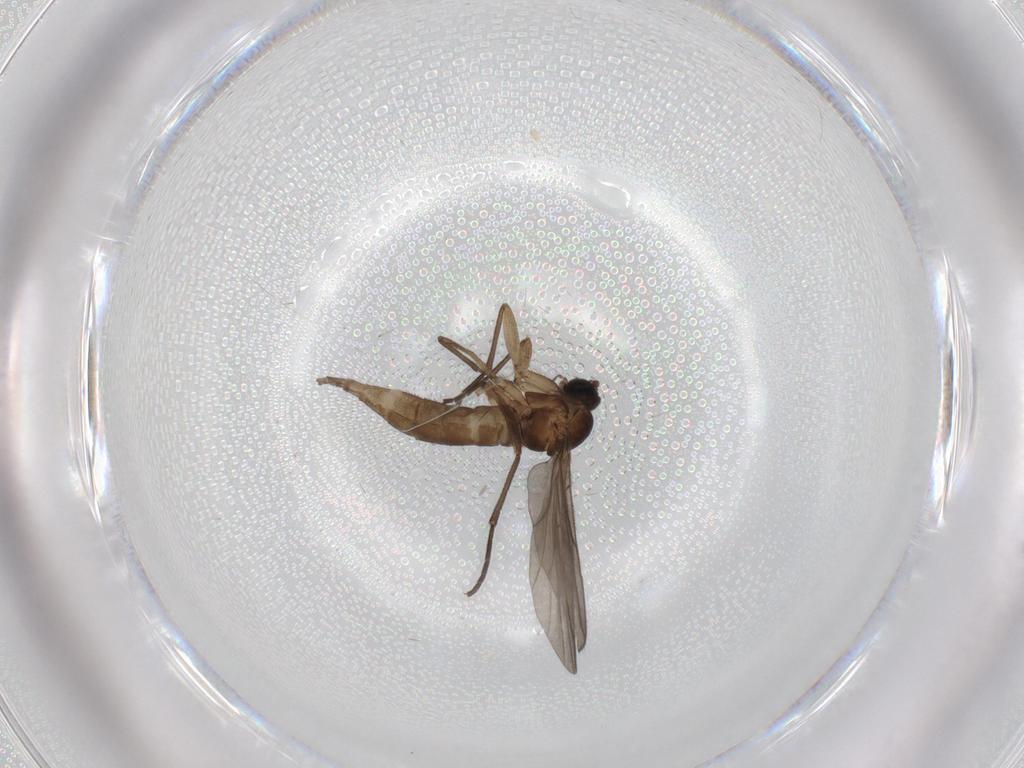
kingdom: Animalia
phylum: Arthropoda
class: Insecta
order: Diptera
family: Sciaridae
